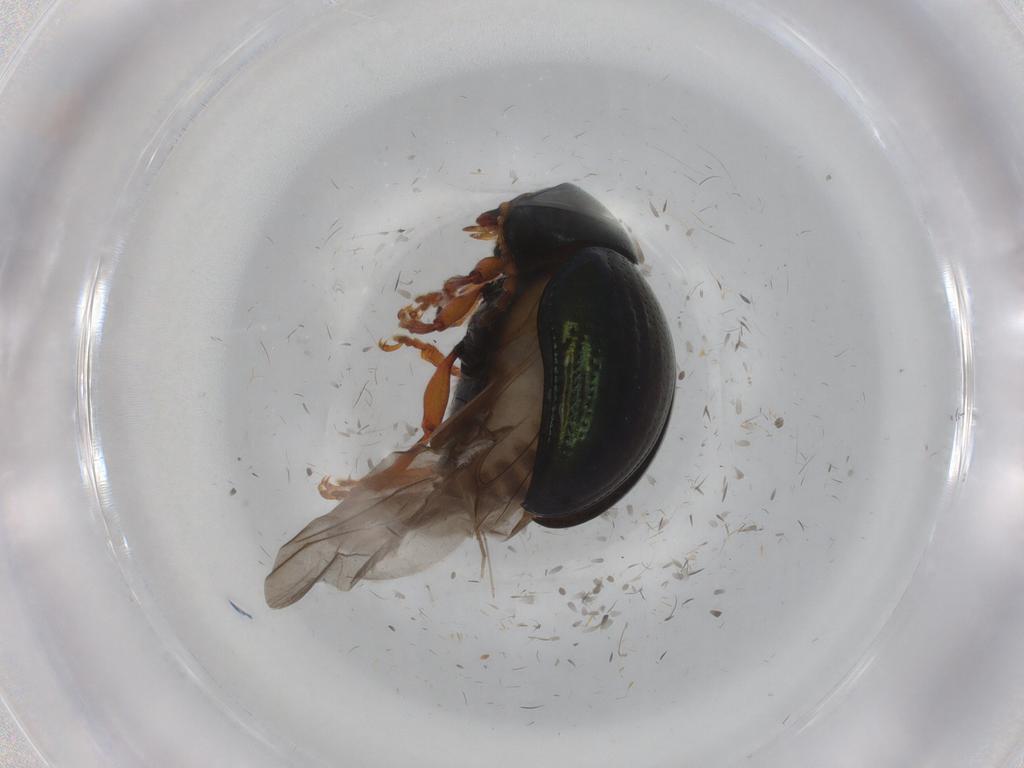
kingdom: Animalia
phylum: Arthropoda
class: Insecta
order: Coleoptera
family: Chrysomelidae
